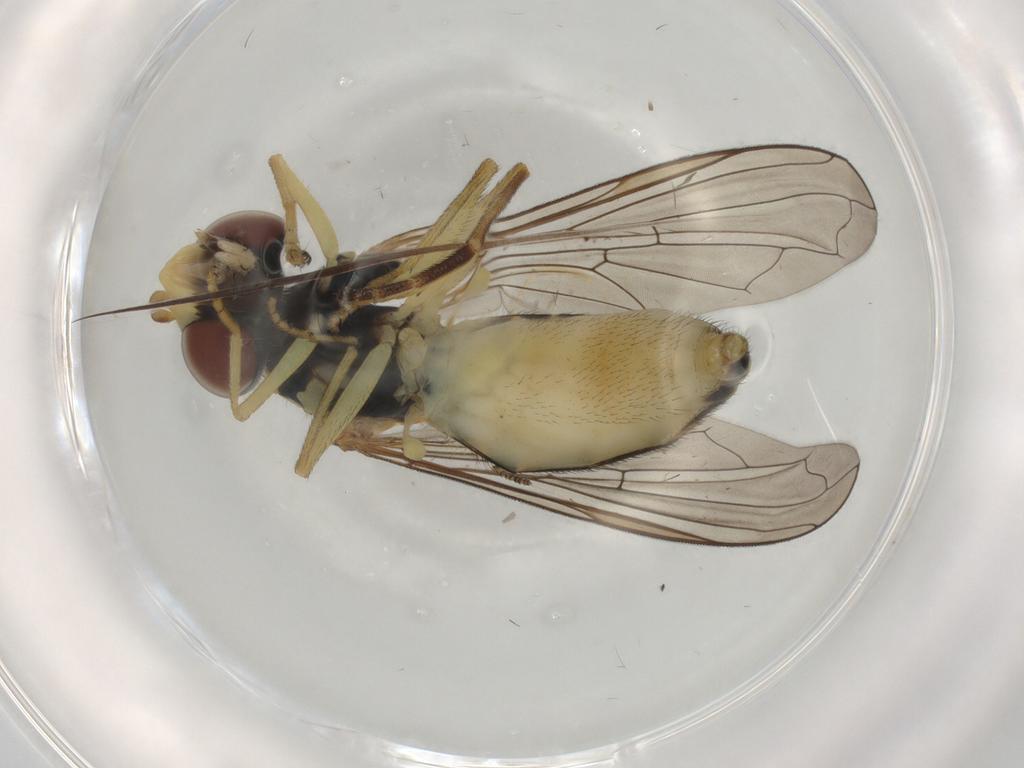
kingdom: Animalia
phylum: Arthropoda
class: Insecta
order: Diptera
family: Syrphidae
